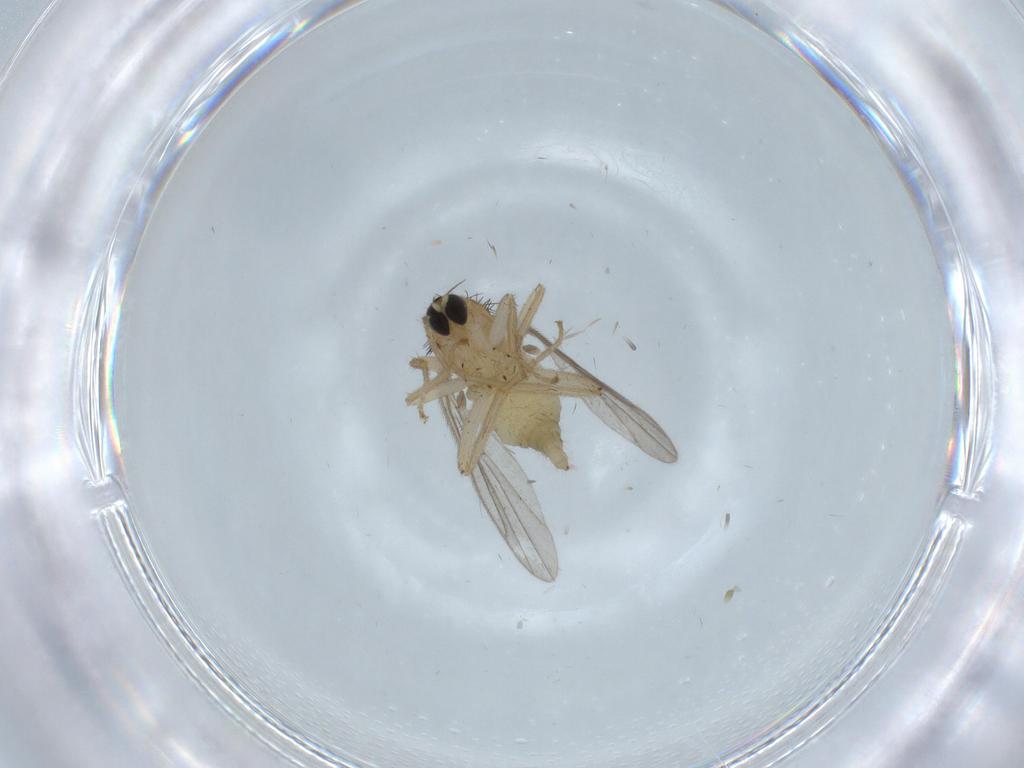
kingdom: Animalia
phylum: Arthropoda
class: Insecta
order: Diptera
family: Hybotidae
